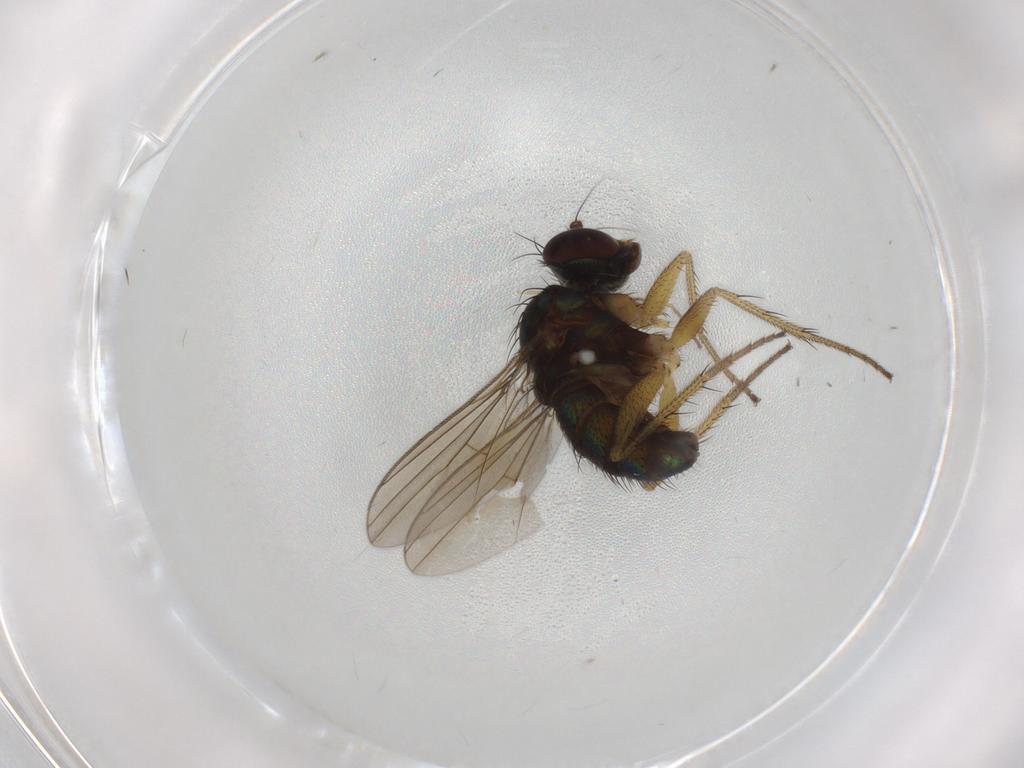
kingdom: Animalia
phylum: Arthropoda
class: Insecta
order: Diptera
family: Dolichopodidae
